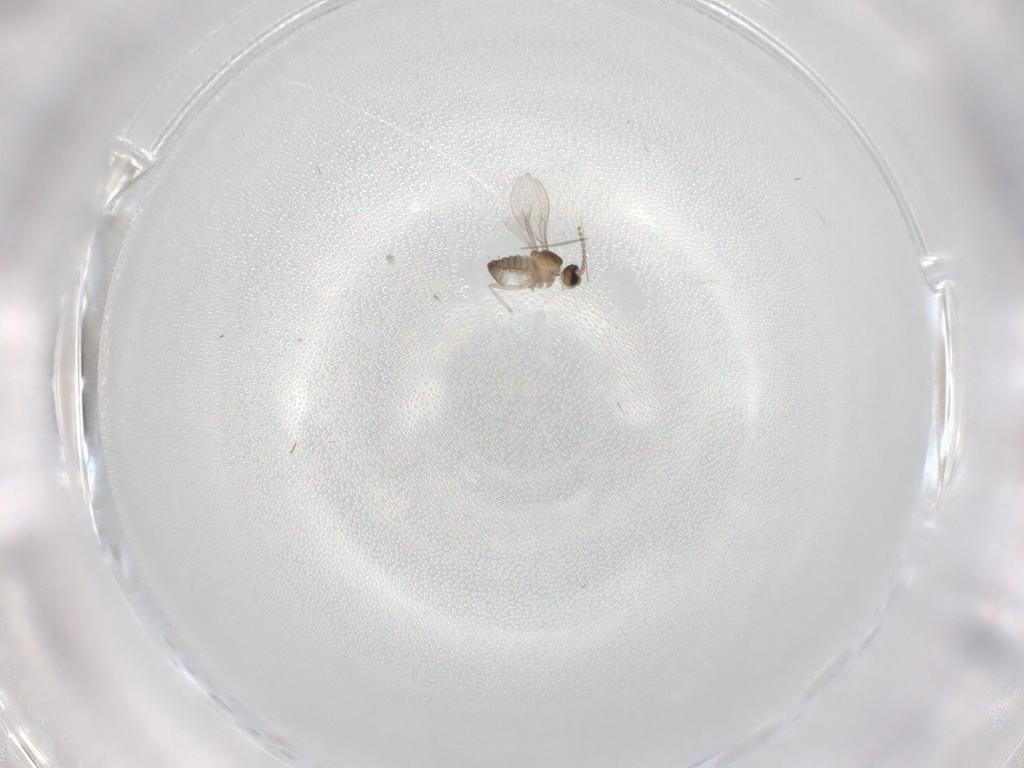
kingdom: Animalia
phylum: Arthropoda
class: Insecta
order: Diptera
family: Cecidomyiidae
